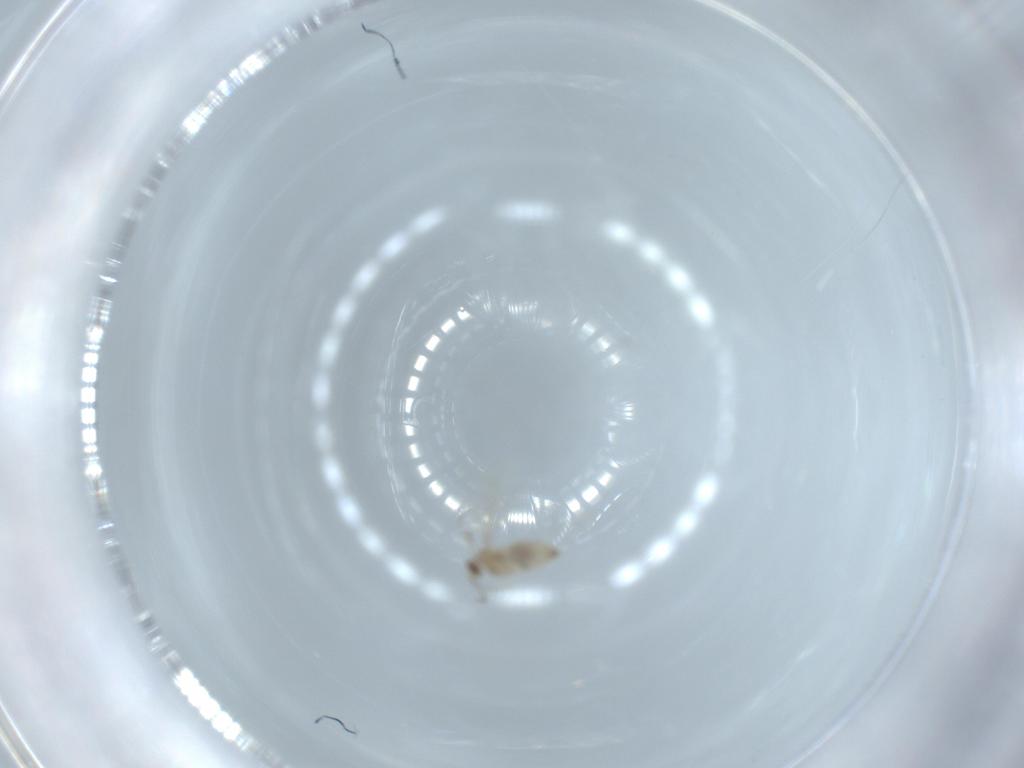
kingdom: Animalia
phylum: Arthropoda
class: Insecta
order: Diptera
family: Cecidomyiidae
